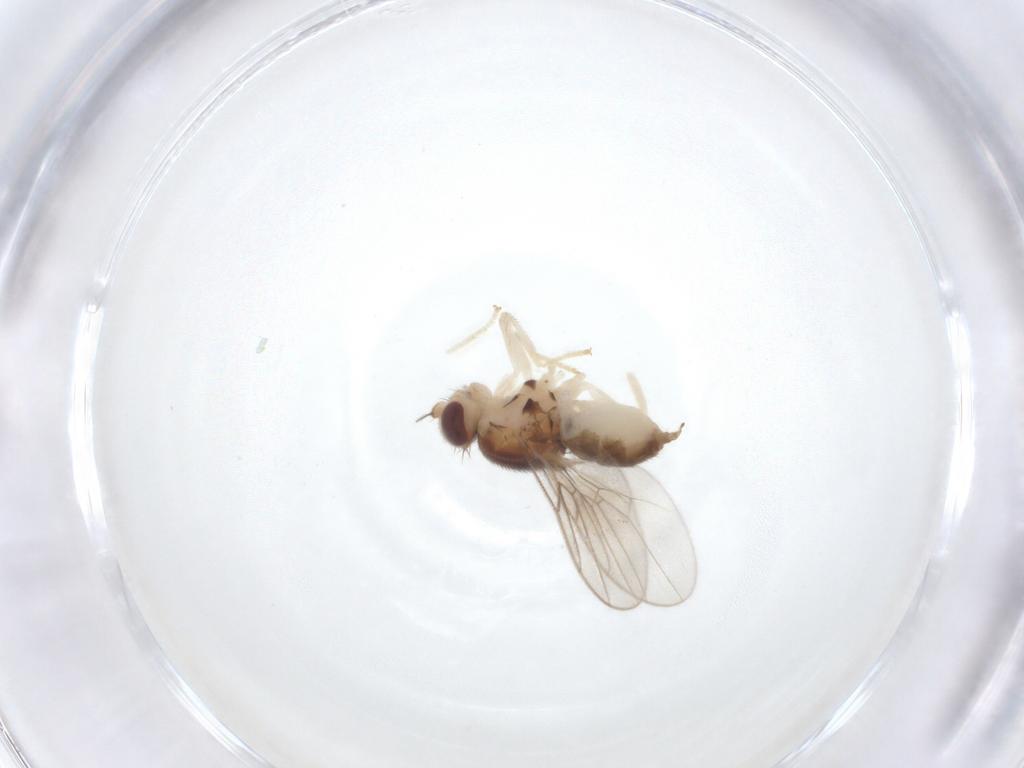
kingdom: Animalia
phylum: Arthropoda
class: Insecta
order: Diptera
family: Chloropidae
